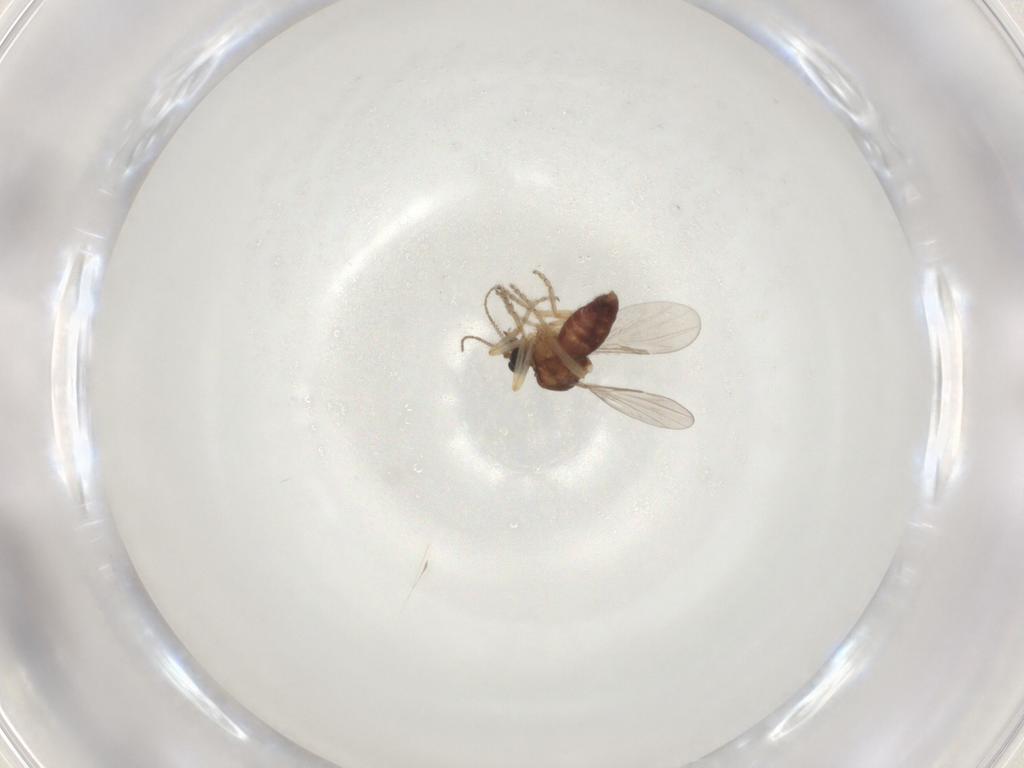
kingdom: Animalia
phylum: Arthropoda
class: Insecta
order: Diptera
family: Ceratopogonidae
